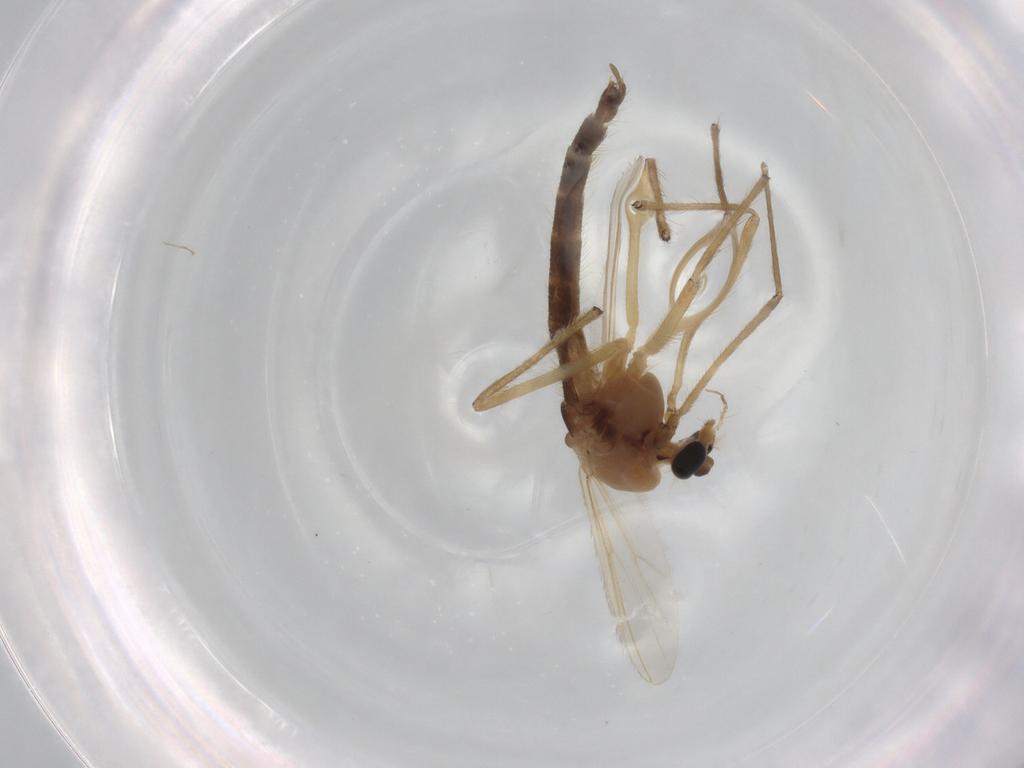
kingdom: Animalia
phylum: Arthropoda
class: Insecta
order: Diptera
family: Chironomidae
